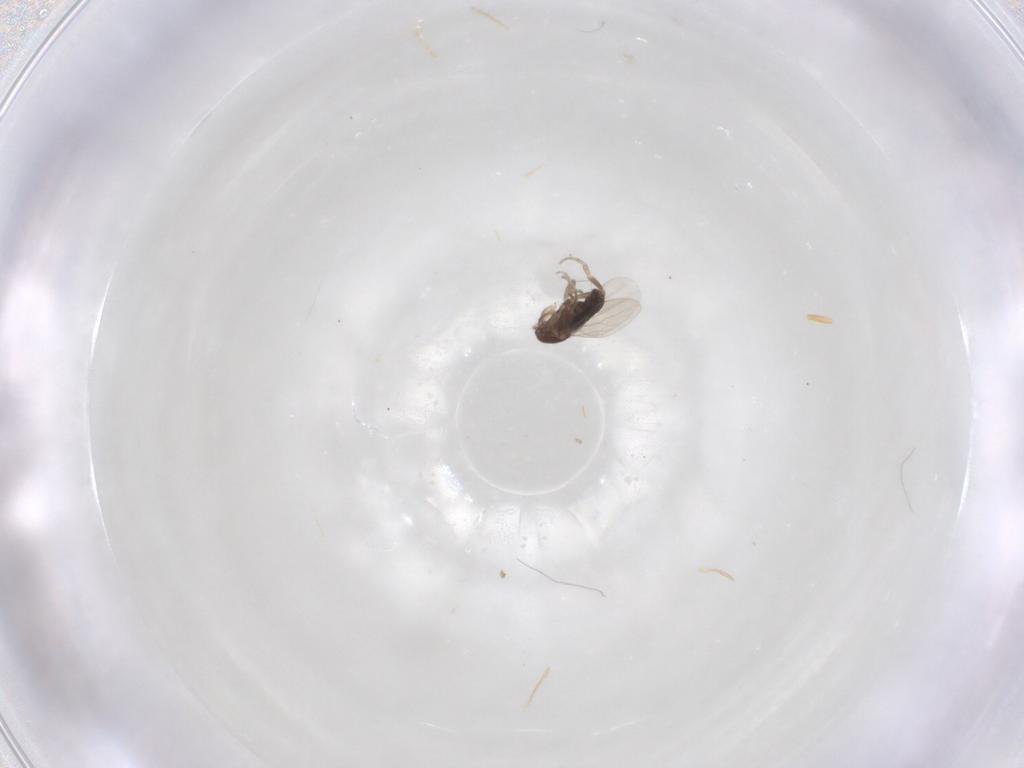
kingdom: Animalia
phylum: Arthropoda
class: Insecta
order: Diptera
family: Phoridae
